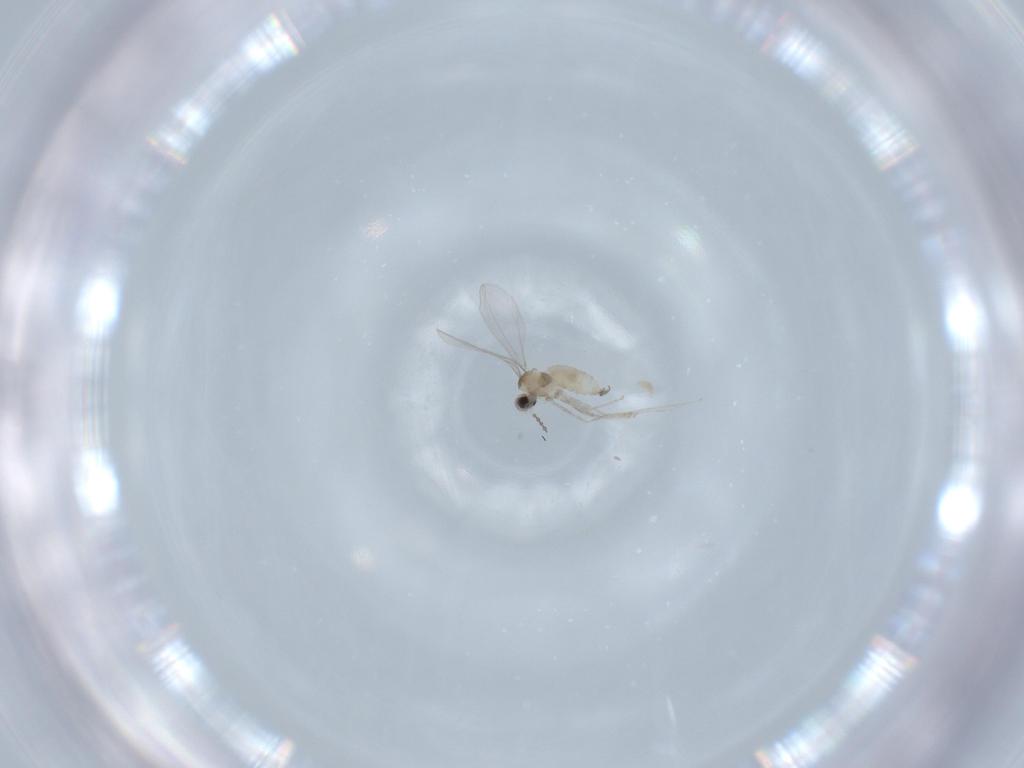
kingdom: Animalia
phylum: Arthropoda
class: Insecta
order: Diptera
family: Cecidomyiidae
